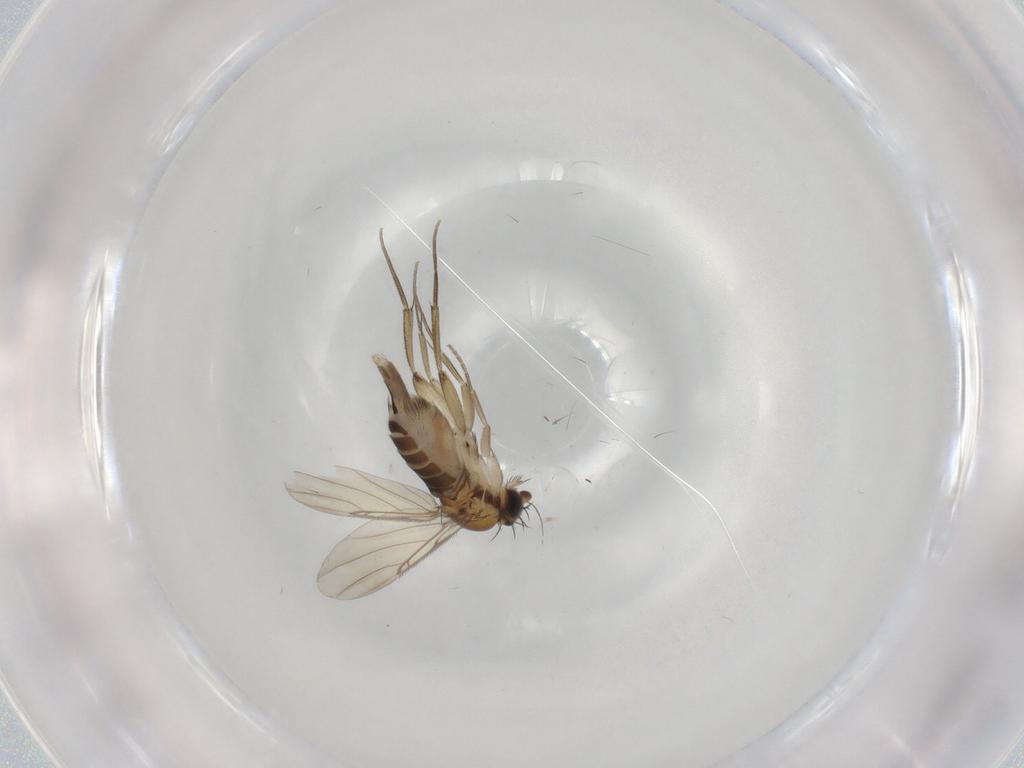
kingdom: Animalia
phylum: Arthropoda
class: Insecta
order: Diptera
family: Phoridae
